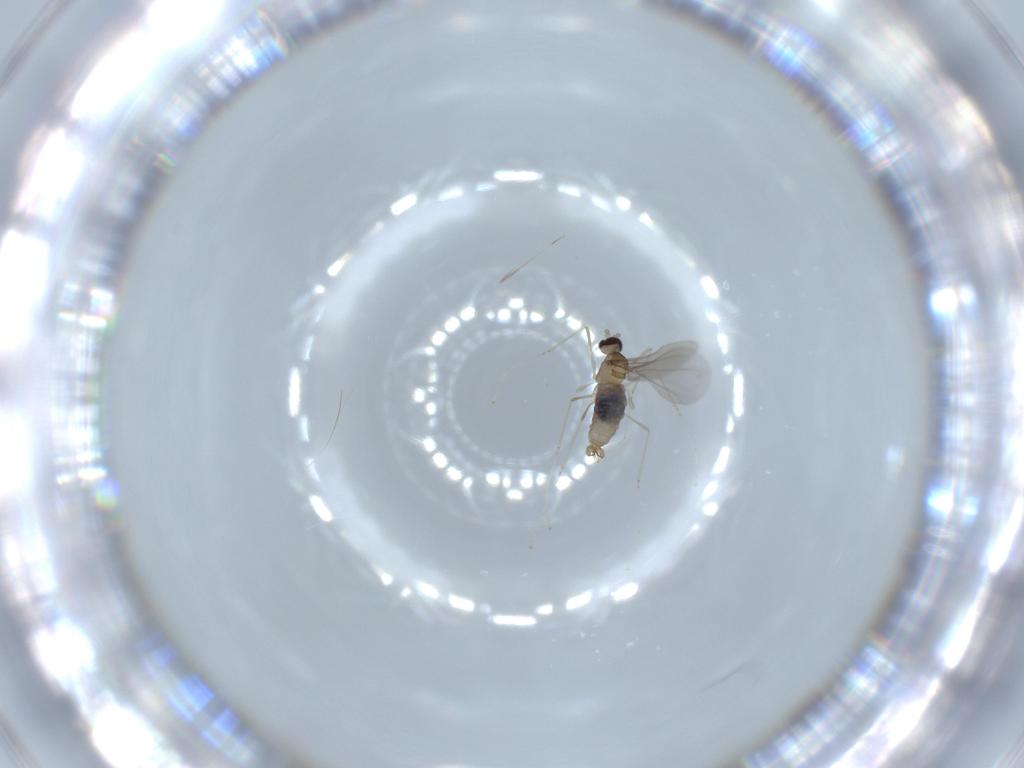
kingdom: Animalia
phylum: Arthropoda
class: Insecta
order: Diptera
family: Cecidomyiidae
